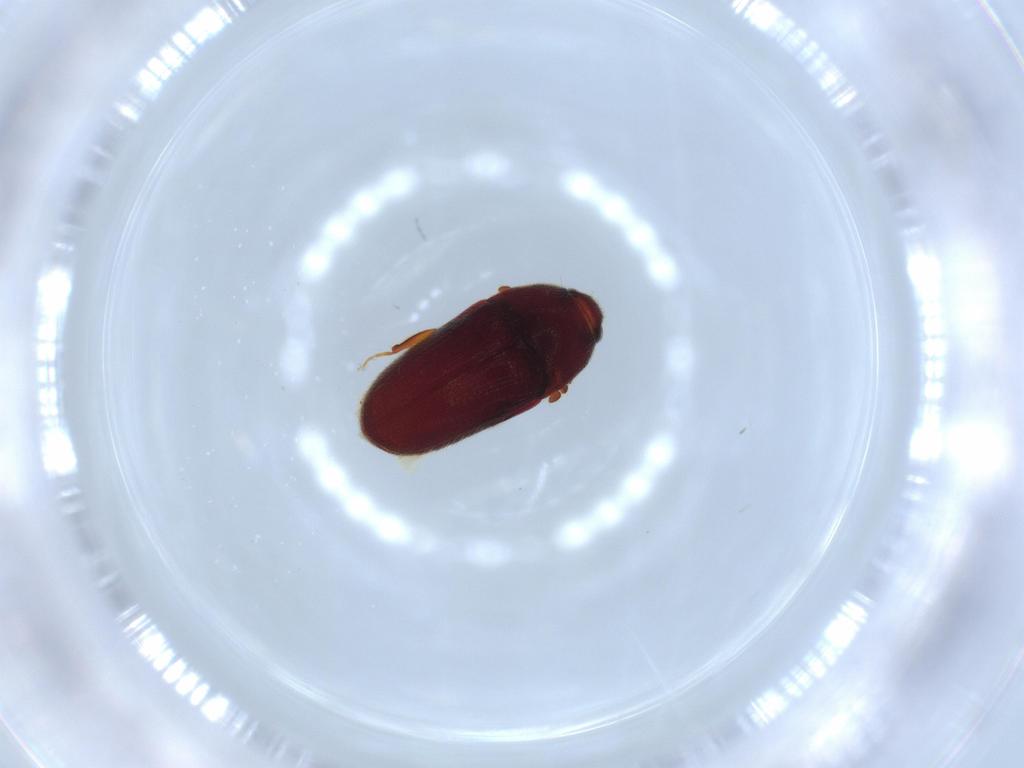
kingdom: Animalia
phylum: Arthropoda
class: Insecta
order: Coleoptera
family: Throscidae
